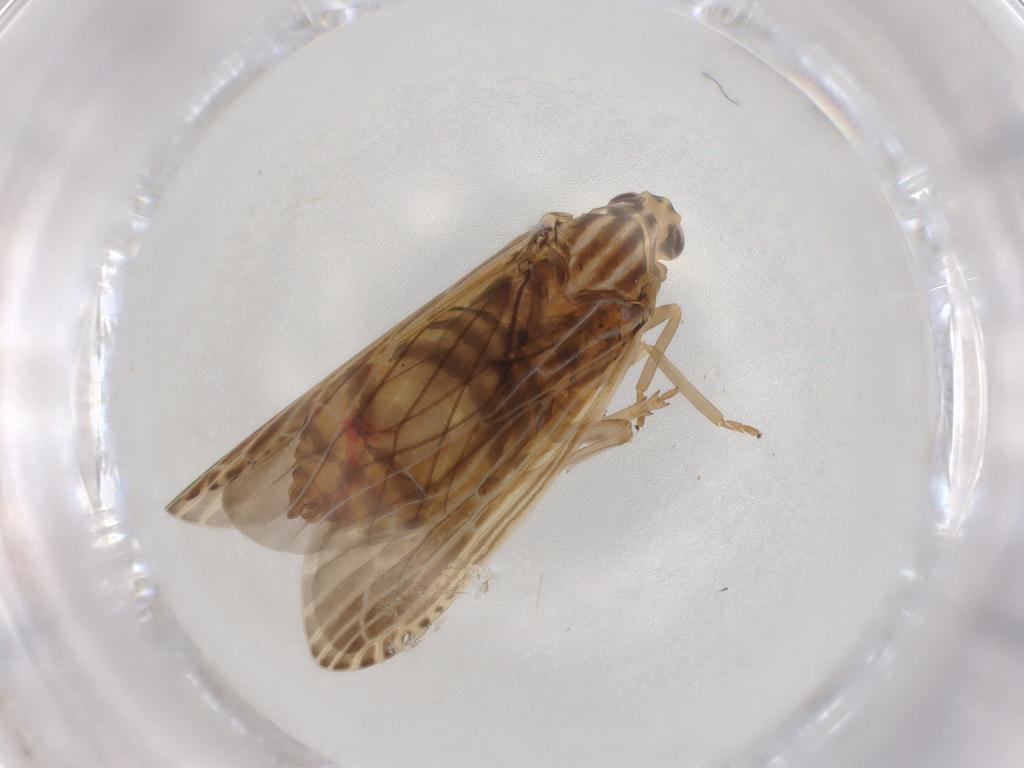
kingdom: Animalia
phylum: Arthropoda
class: Insecta
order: Hemiptera
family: Achilidae
